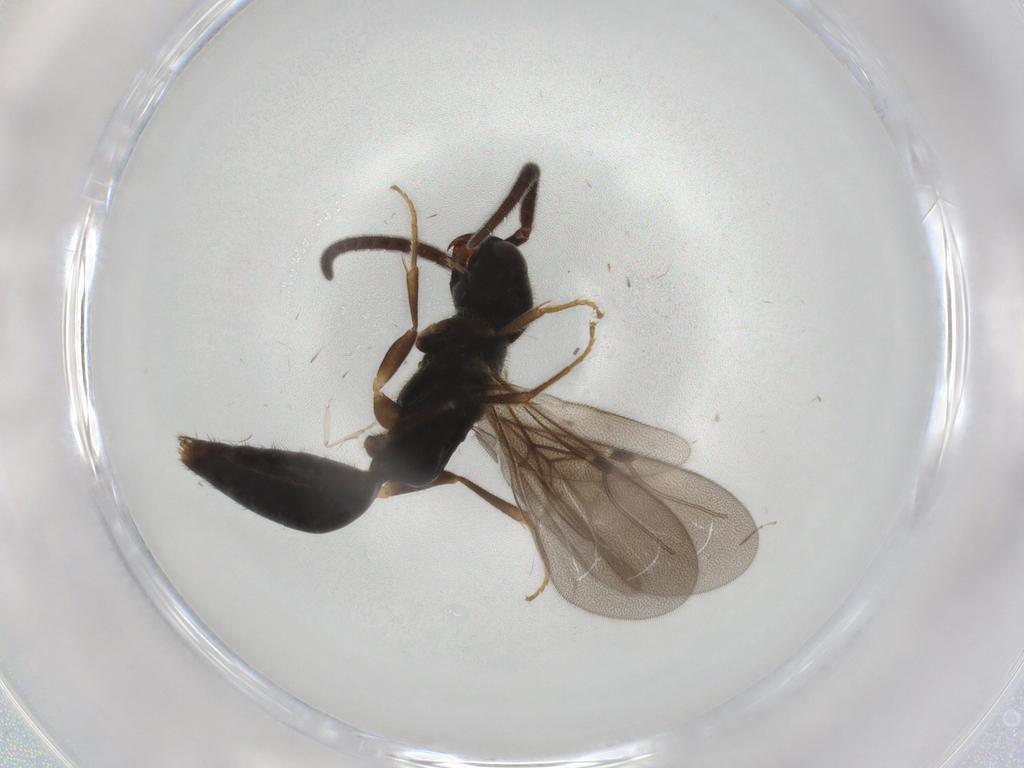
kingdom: Animalia
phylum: Arthropoda
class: Insecta
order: Hymenoptera
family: Bethylidae
